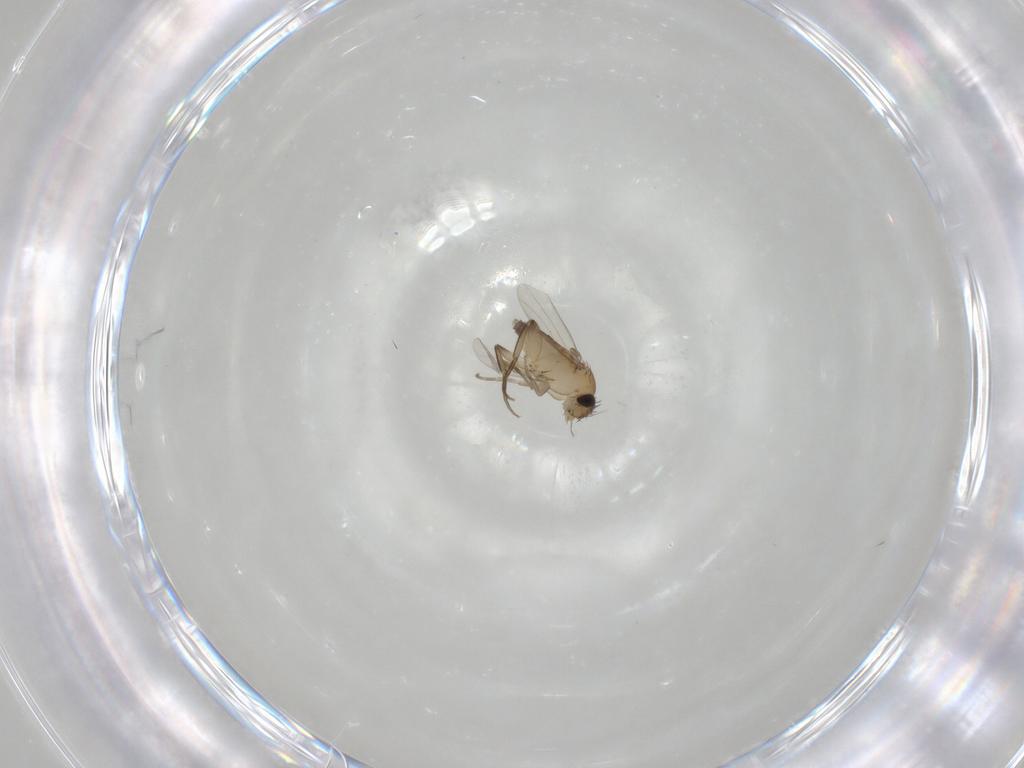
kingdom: Animalia
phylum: Arthropoda
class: Insecta
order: Diptera
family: Phoridae
